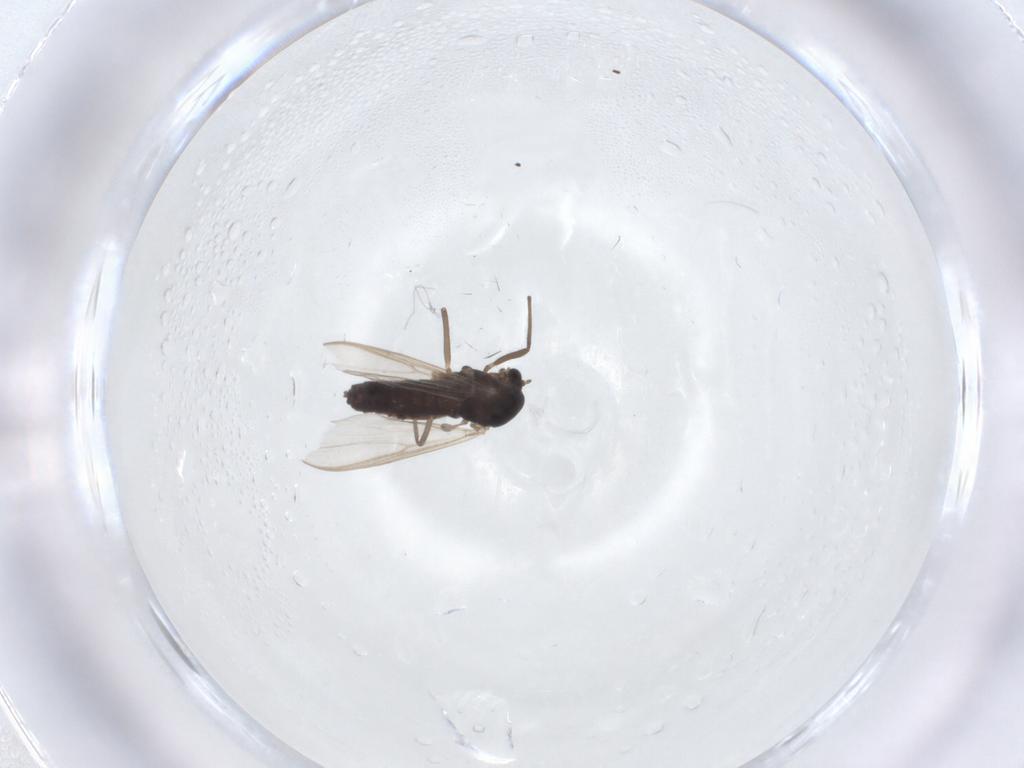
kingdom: Animalia
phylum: Arthropoda
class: Insecta
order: Diptera
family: Chironomidae
